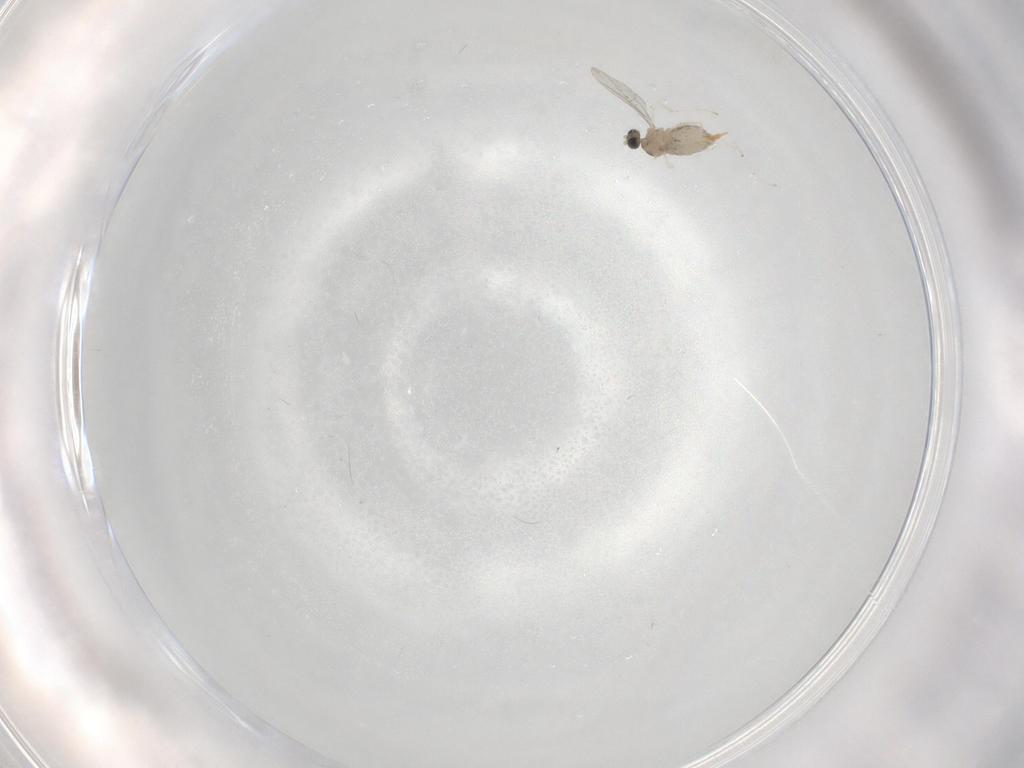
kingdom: Animalia
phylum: Arthropoda
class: Insecta
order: Diptera
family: Cecidomyiidae
